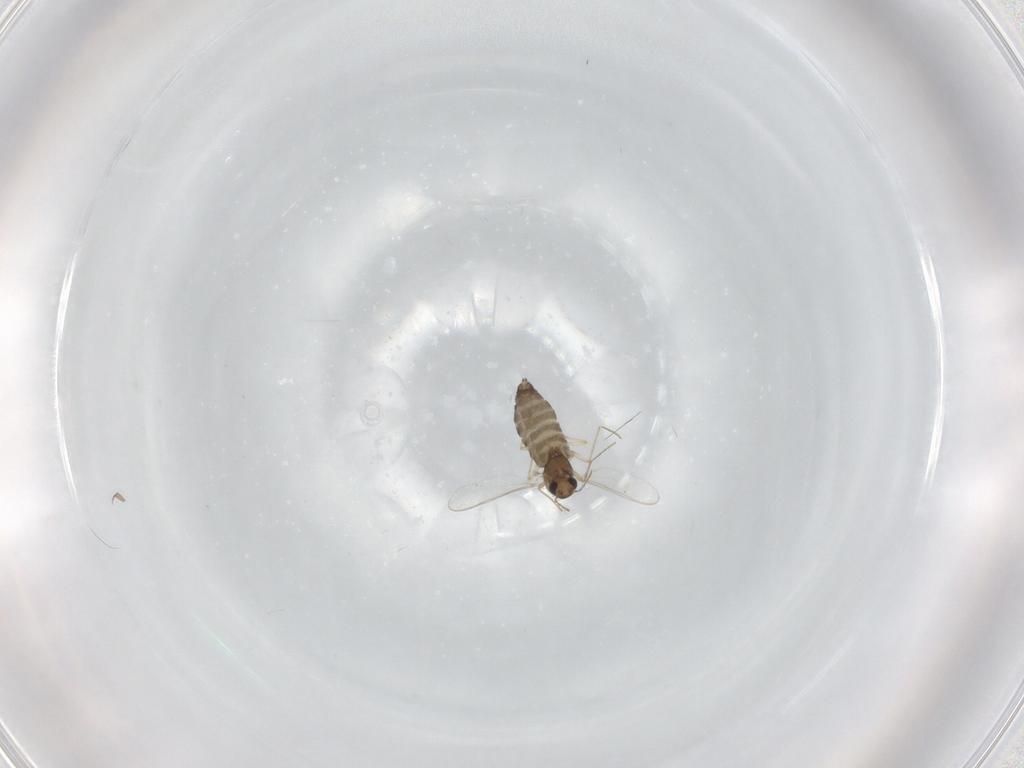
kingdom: Animalia
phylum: Arthropoda
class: Insecta
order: Diptera
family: Chironomidae
